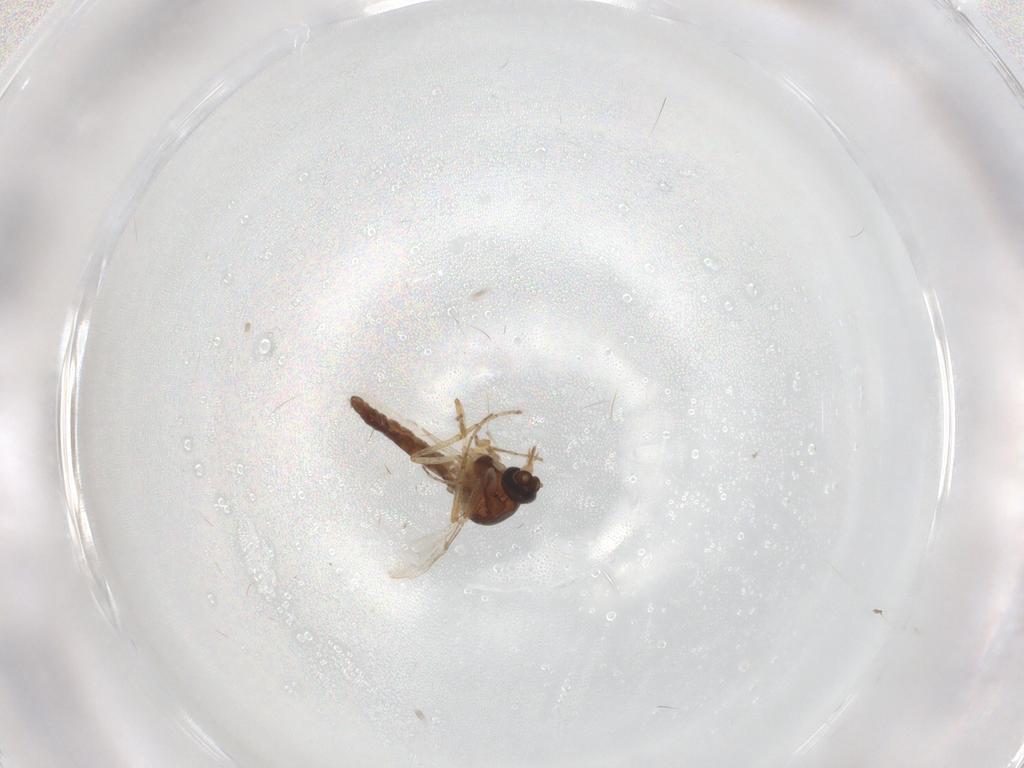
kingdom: Animalia
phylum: Arthropoda
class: Insecta
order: Diptera
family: Ceratopogonidae
